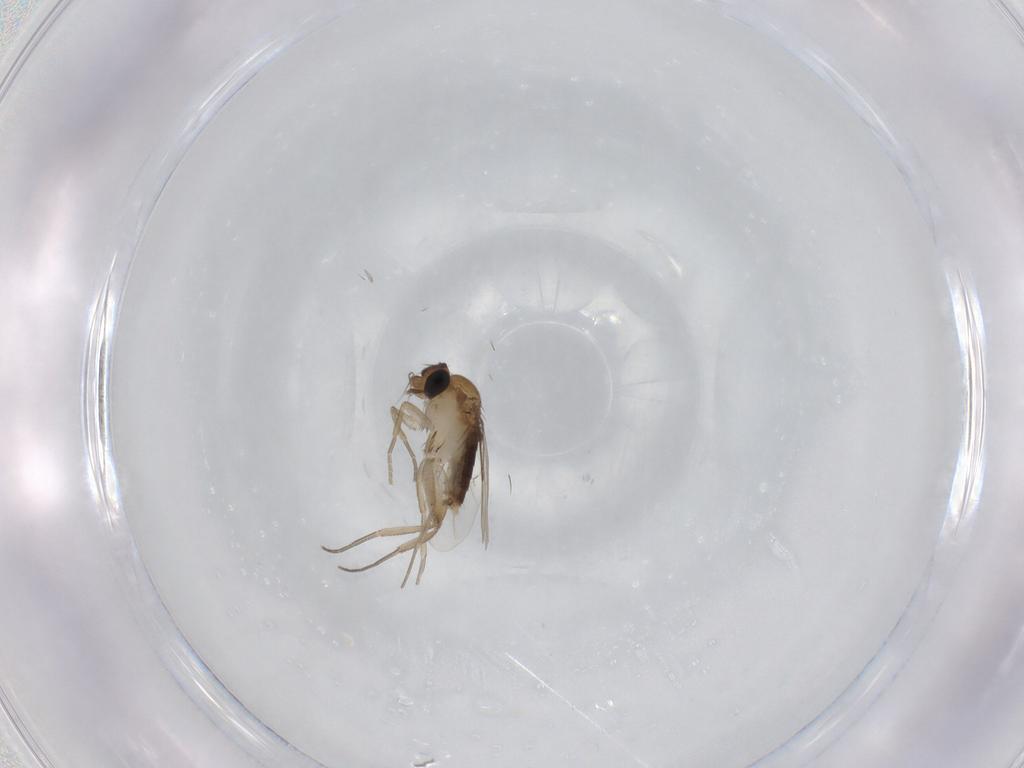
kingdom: Animalia
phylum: Arthropoda
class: Insecta
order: Diptera
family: Phoridae
